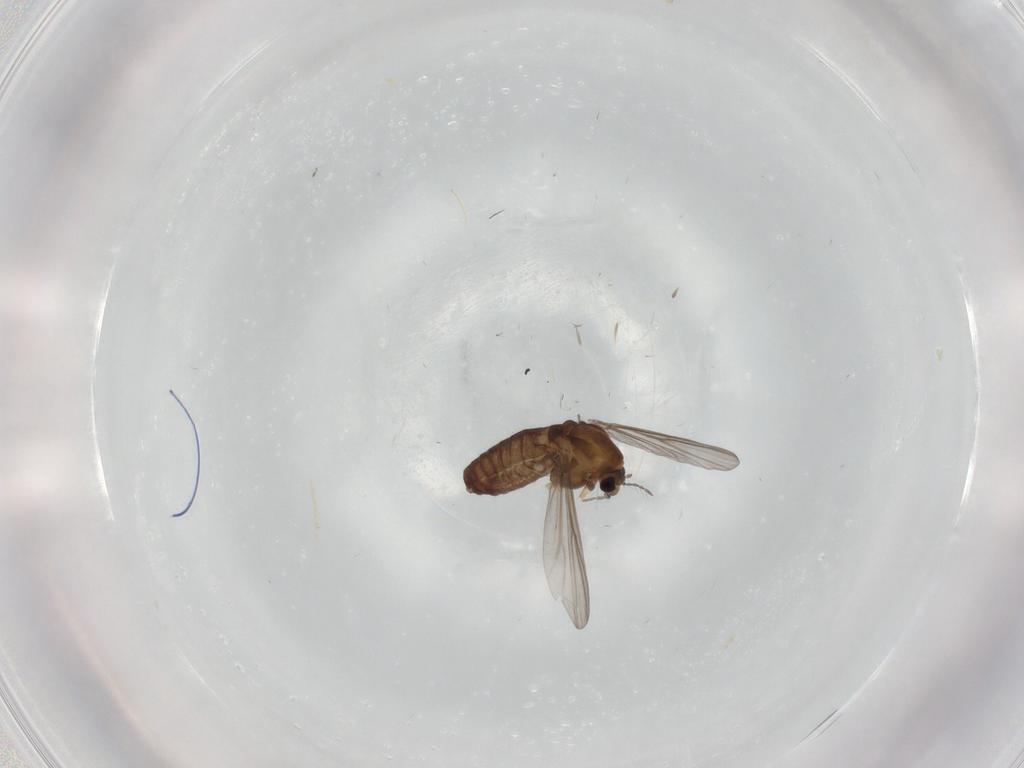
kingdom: Animalia
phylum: Arthropoda
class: Insecta
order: Diptera
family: Chironomidae
